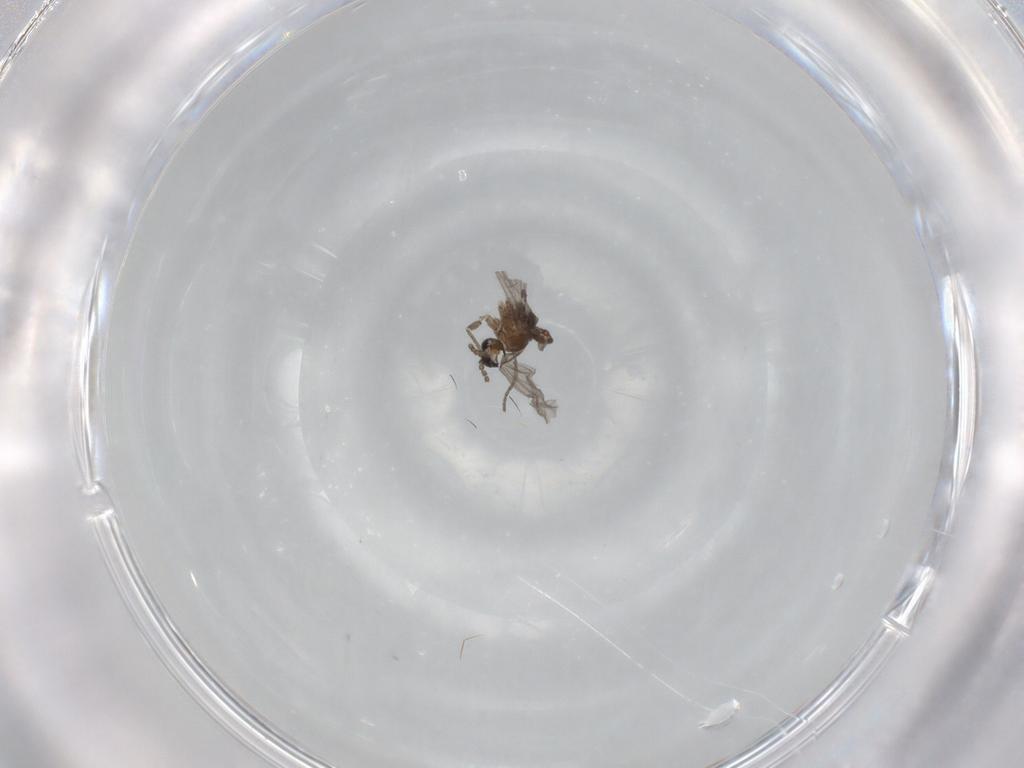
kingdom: Animalia
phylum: Arthropoda
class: Insecta
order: Diptera
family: Sciaridae
